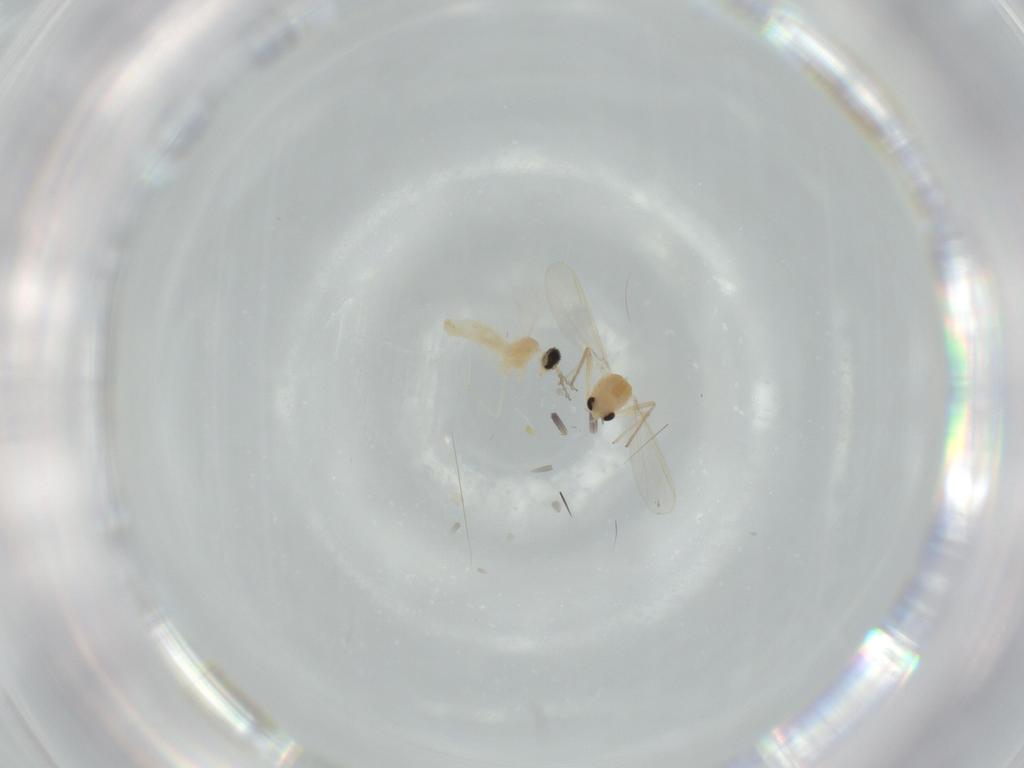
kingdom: Animalia
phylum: Arthropoda
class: Insecta
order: Diptera
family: Chironomidae
